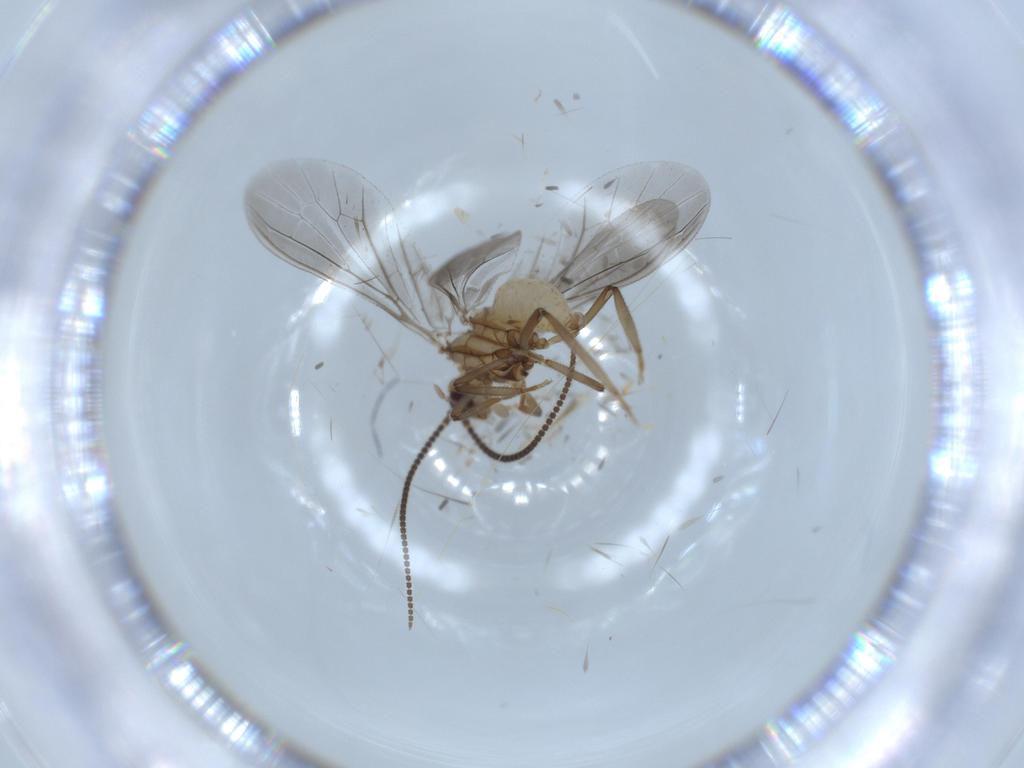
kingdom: Animalia
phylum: Arthropoda
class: Insecta
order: Neuroptera
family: Coniopterygidae
